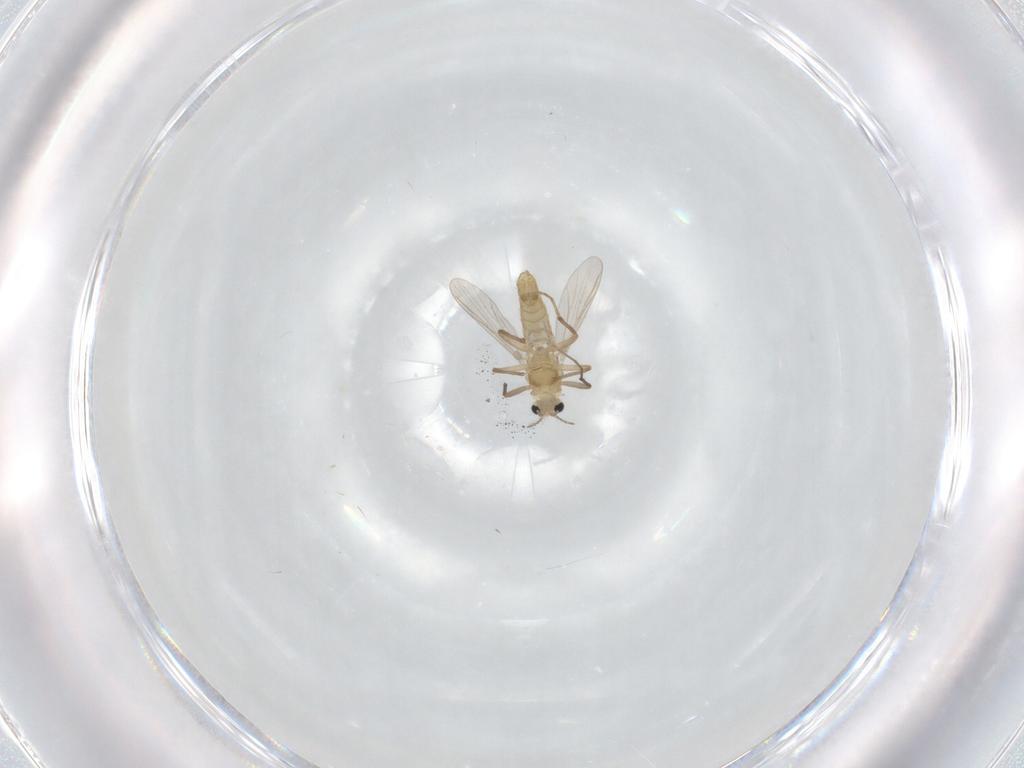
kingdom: Animalia
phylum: Arthropoda
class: Insecta
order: Diptera
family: Chironomidae
